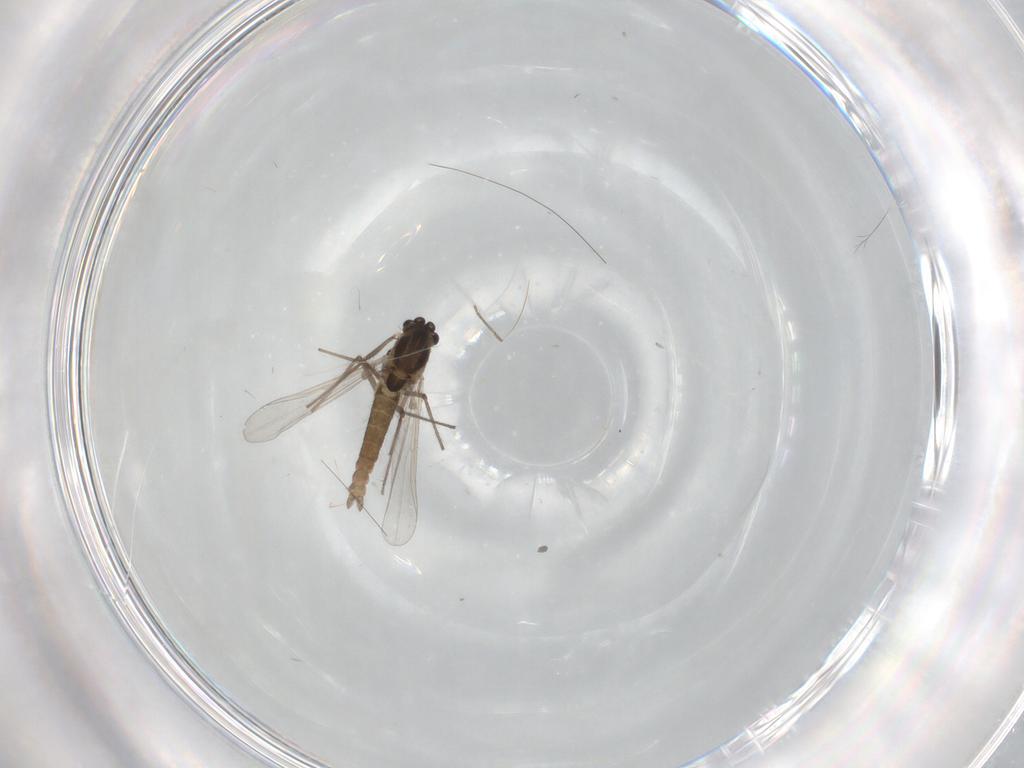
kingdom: Animalia
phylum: Arthropoda
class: Insecta
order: Diptera
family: Chironomidae
